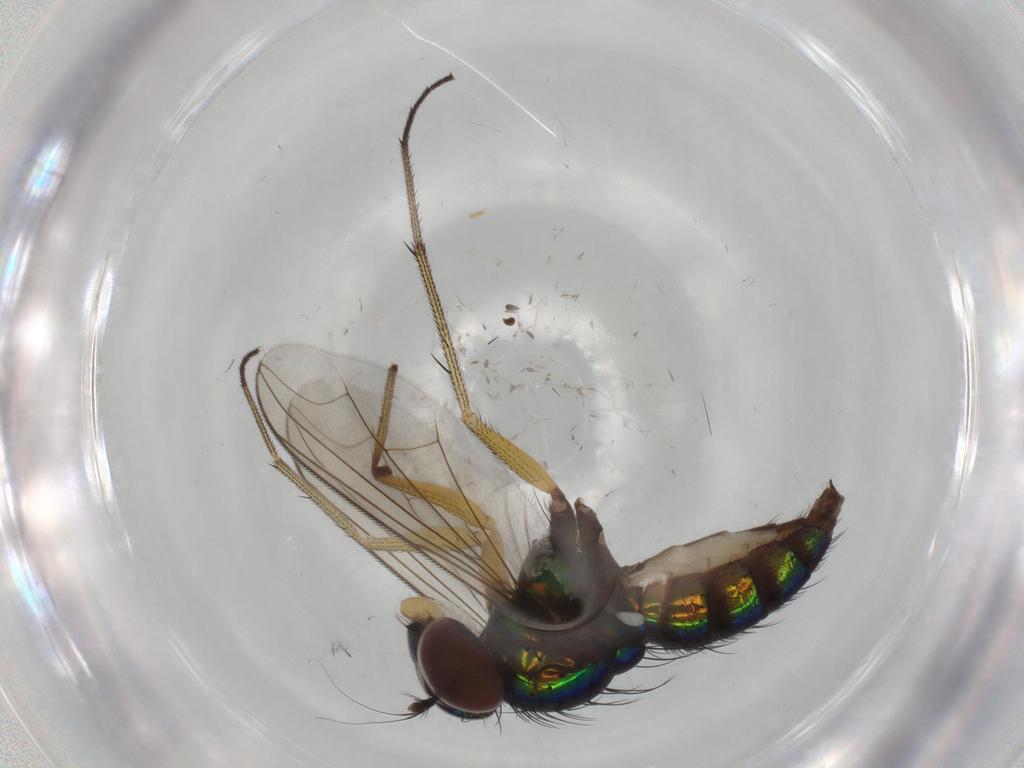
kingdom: Animalia
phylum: Arthropoda
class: Insecta
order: Diptera
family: Dolichopodidae
